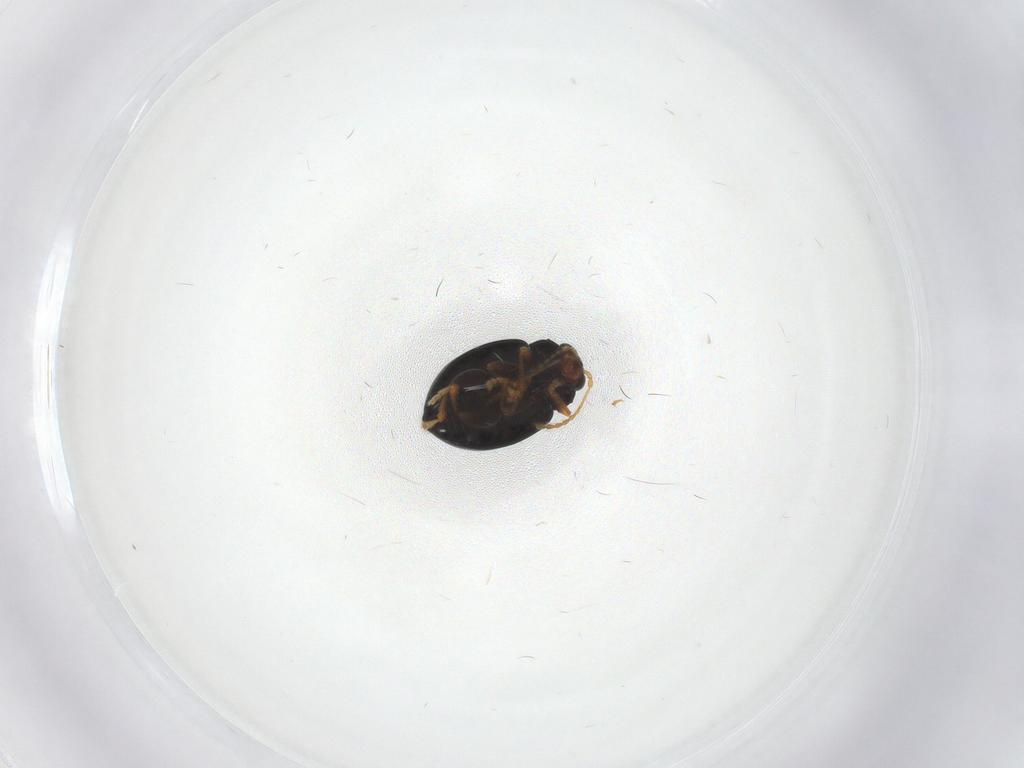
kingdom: Animalia
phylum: Arthropoda
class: Insecta
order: Coleoptera
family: Chrysomelidae
